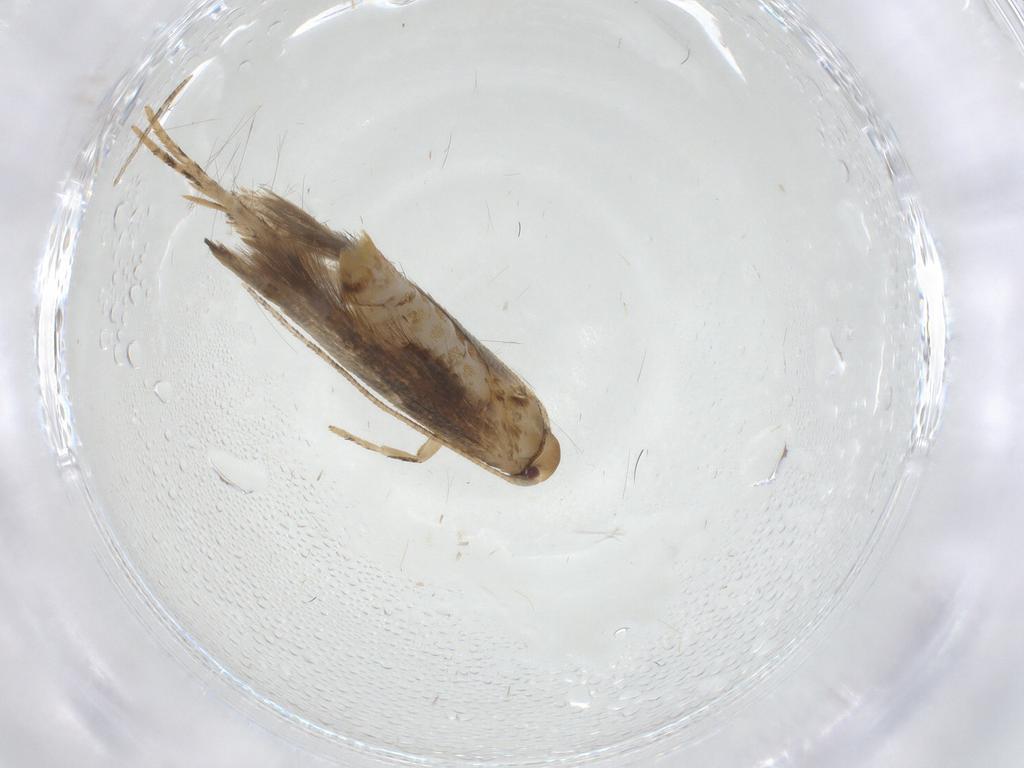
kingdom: Animalia
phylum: Arthropoda
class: Insecta
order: Lepidoptera
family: Momphidae
